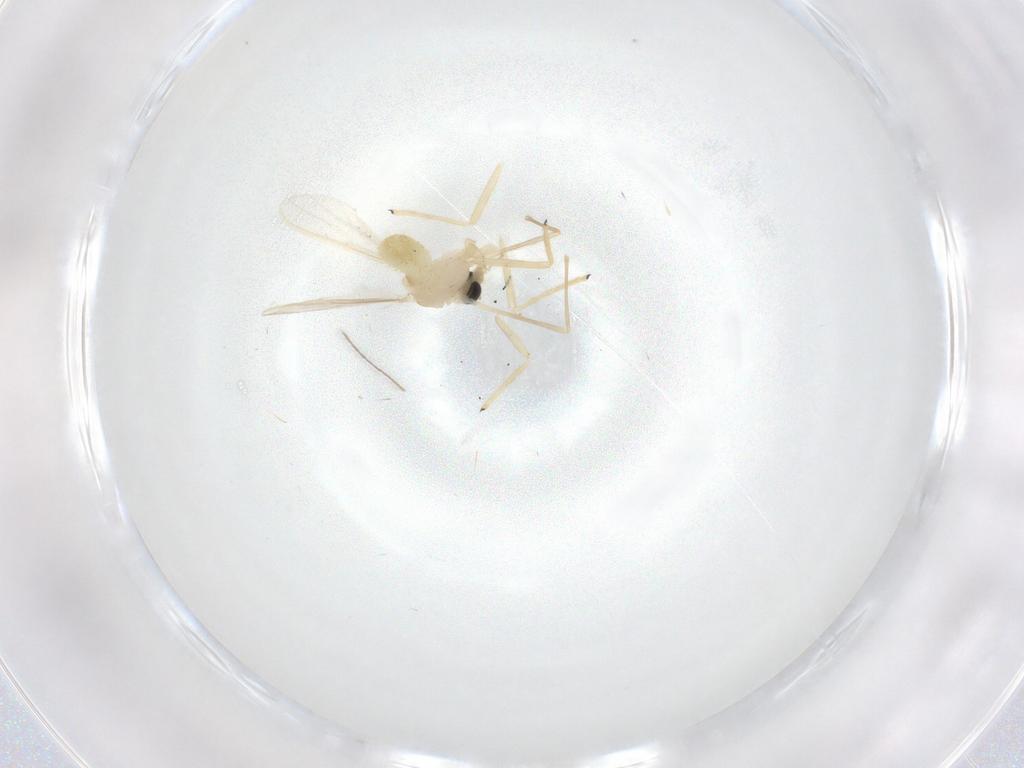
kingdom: Animalia
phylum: Arthropoda
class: Insecta
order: Diptera
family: Ceratopogonidae
